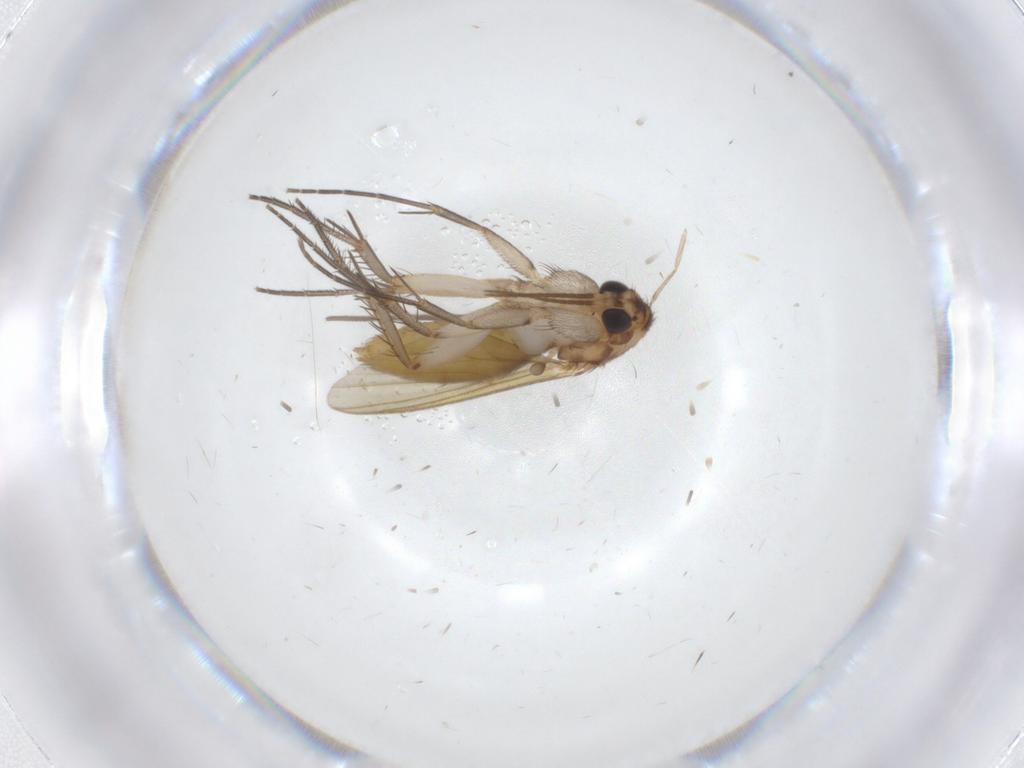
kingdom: Animalia
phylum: Arthropoda
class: Insecta
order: Diptera
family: Mycetophilidae
